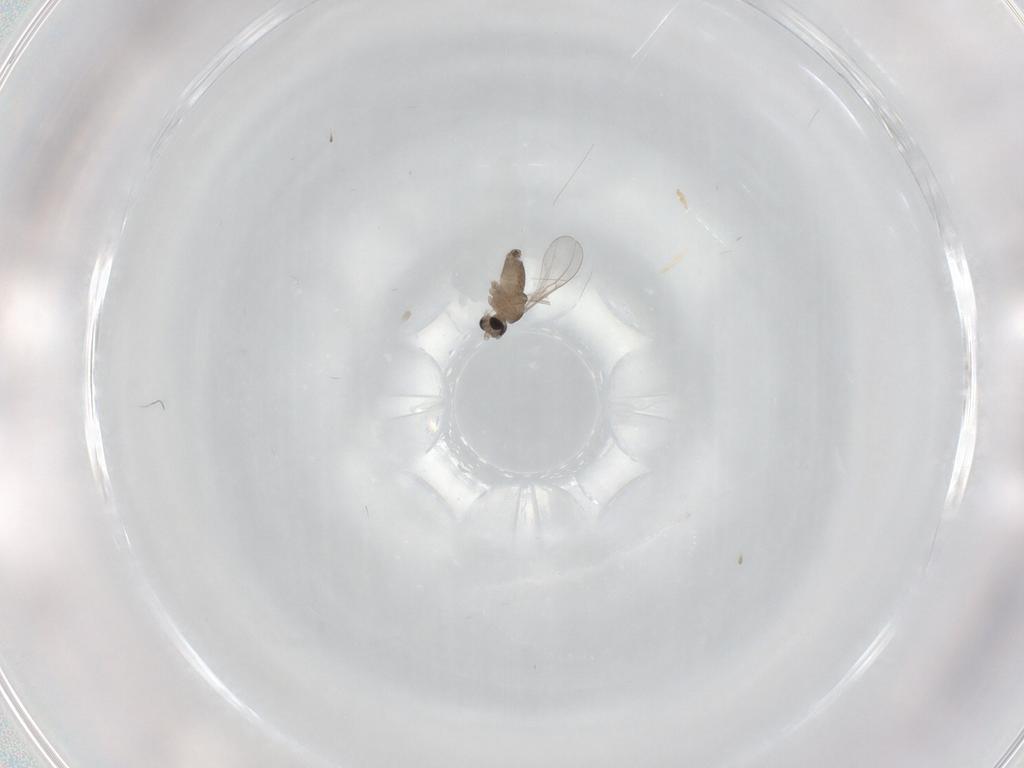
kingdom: Animalia
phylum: Arthropoda
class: Insecta
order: Diptera
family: Cecidomyiidae
